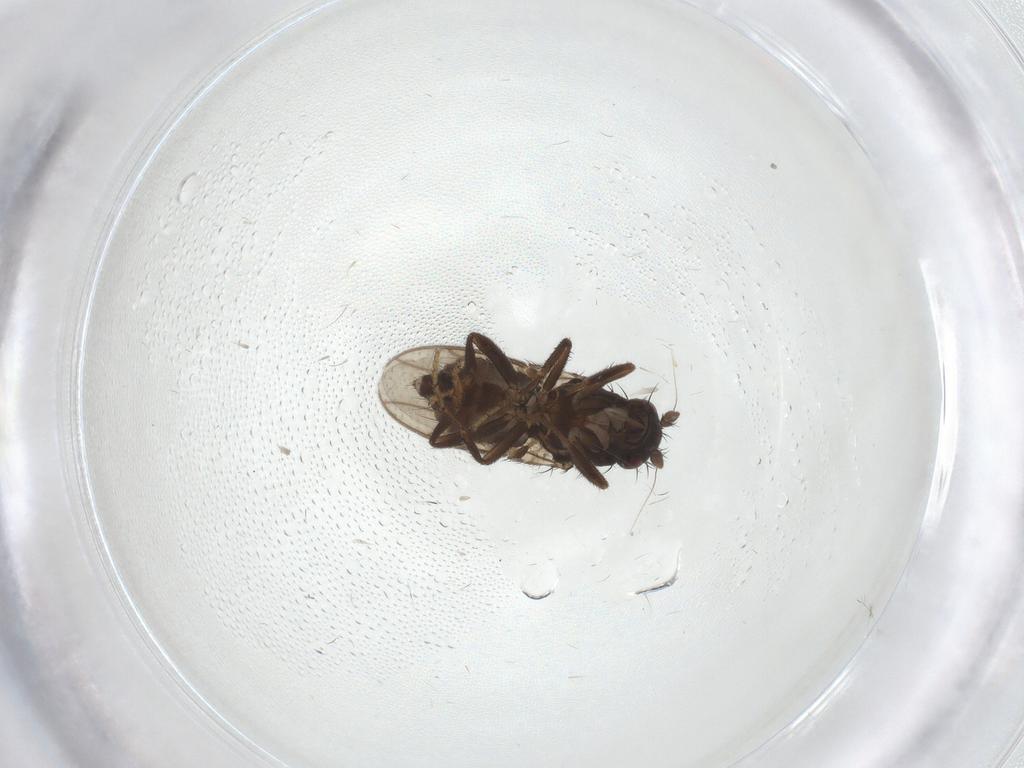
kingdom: Animalia
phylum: Arthropoda
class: Insecta
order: Diptera
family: Sphaeroceridae
